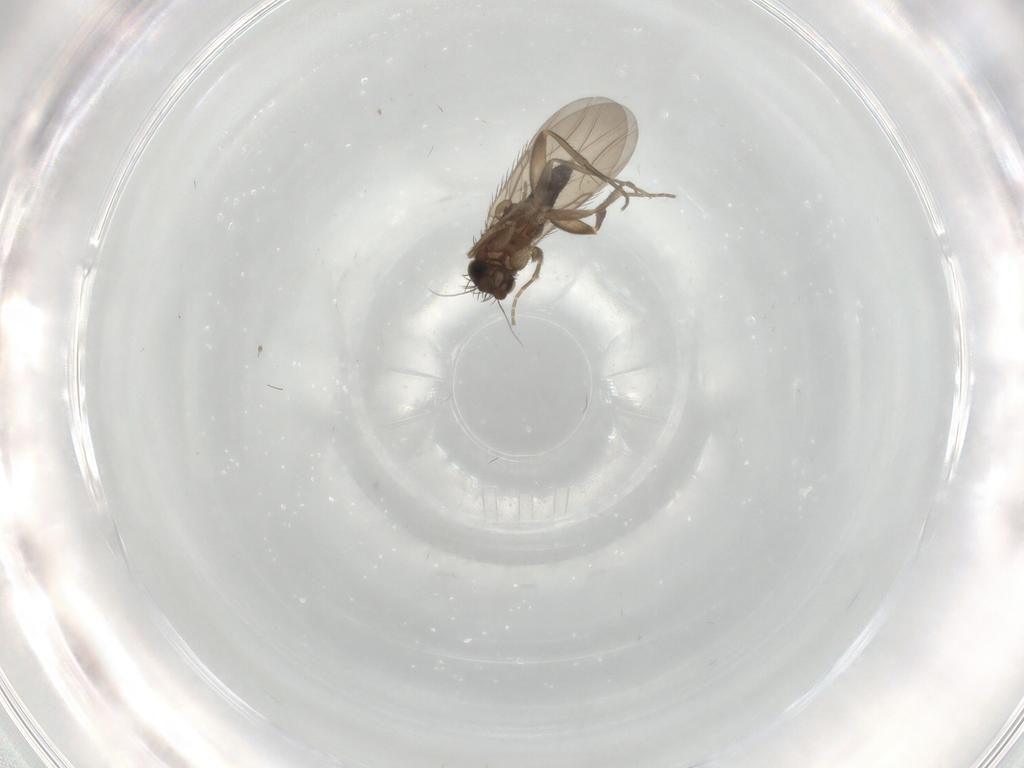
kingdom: Animalia
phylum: Arthropoda
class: Insecta
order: Diptera
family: Phoridae
